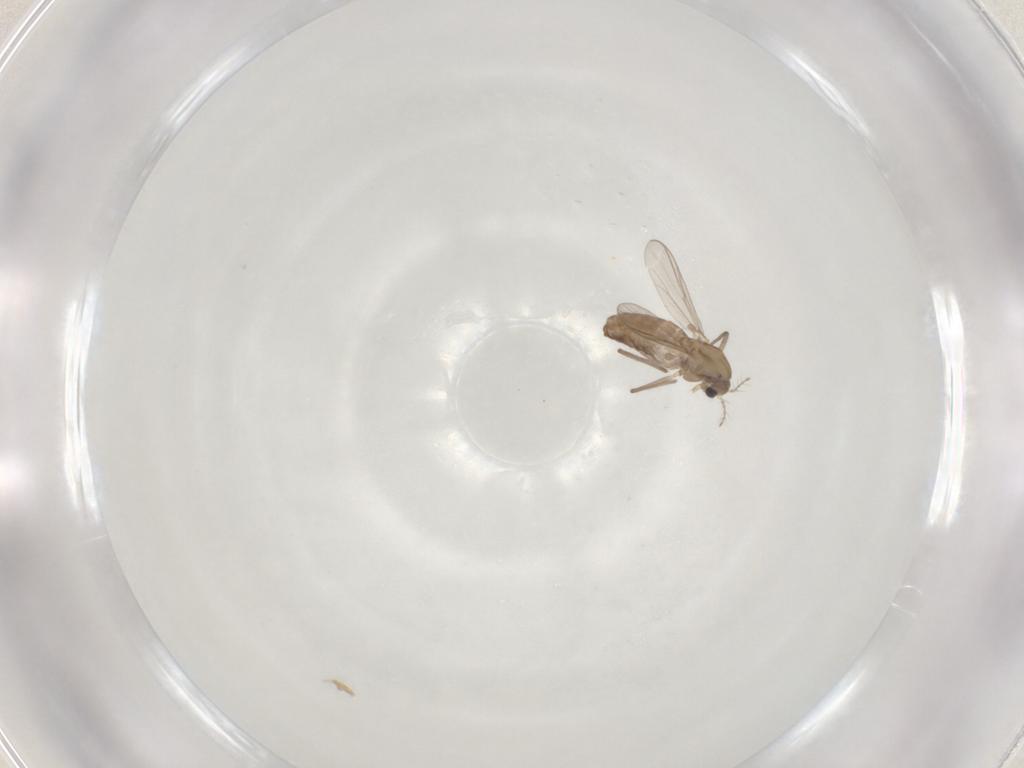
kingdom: Animalia
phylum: Arthropoda
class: Insecta
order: Diptera
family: Chironomidae
